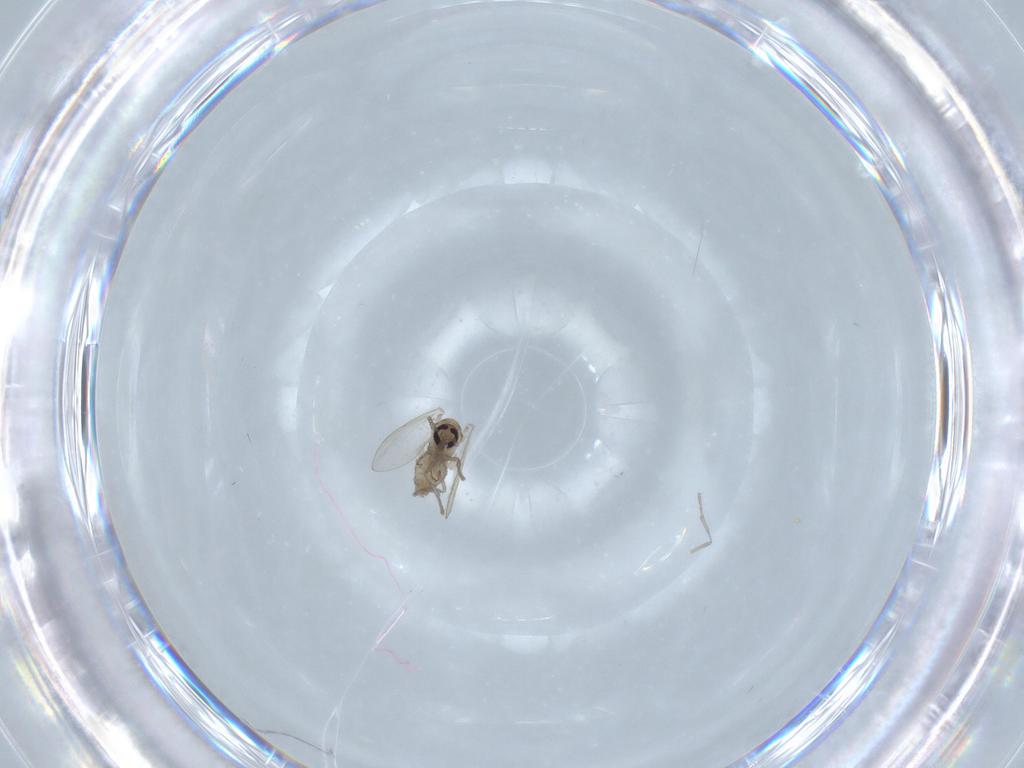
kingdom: Animalia
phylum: Arthropoda
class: Insecta
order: Diptera
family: Psychodidae
